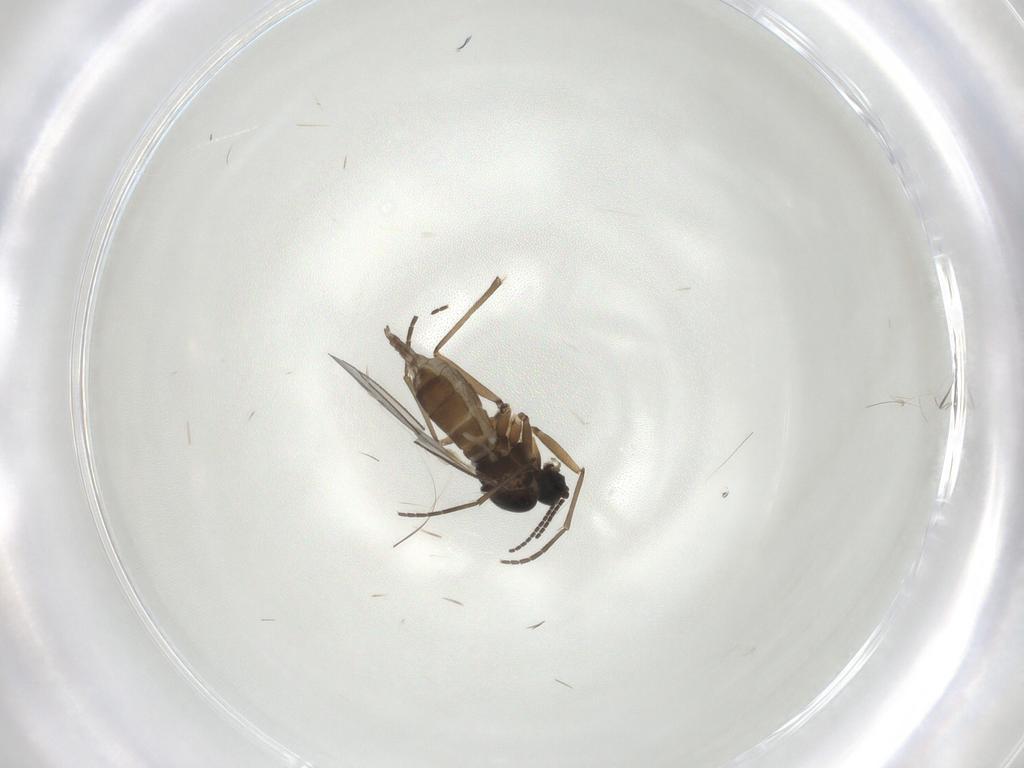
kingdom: Animalia
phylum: Arthropoda
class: Insecta
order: Diptera
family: Sciaridae
